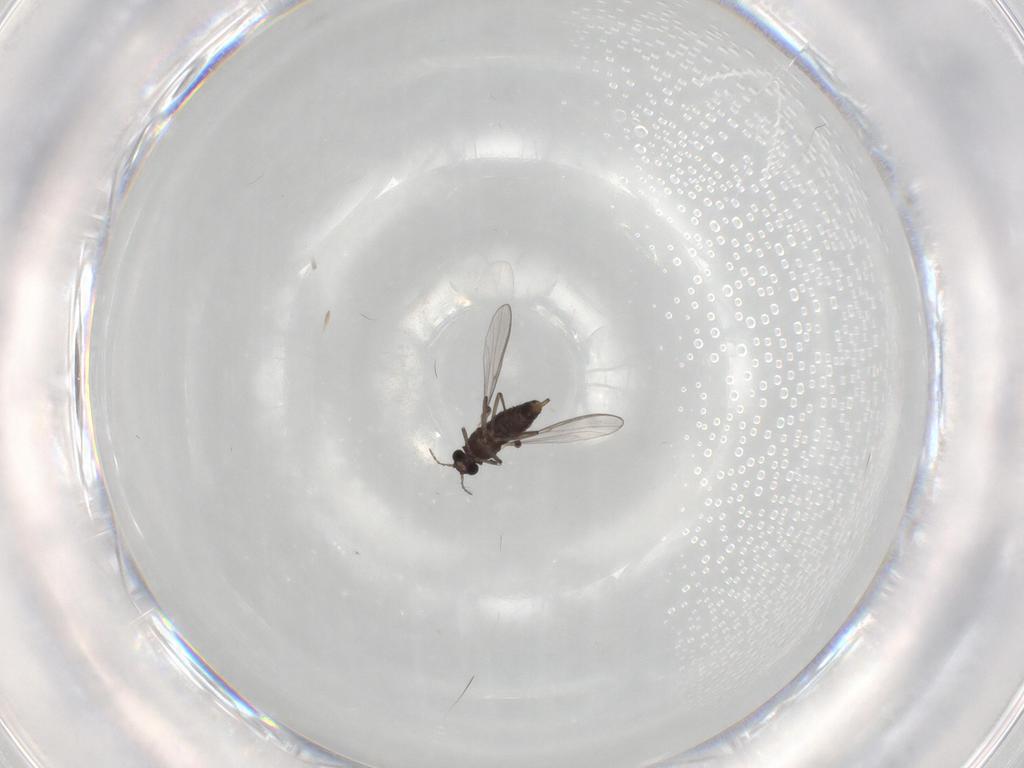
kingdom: Animalia
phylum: Arthropoda
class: Insecta
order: Diptera
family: Chironomidae
